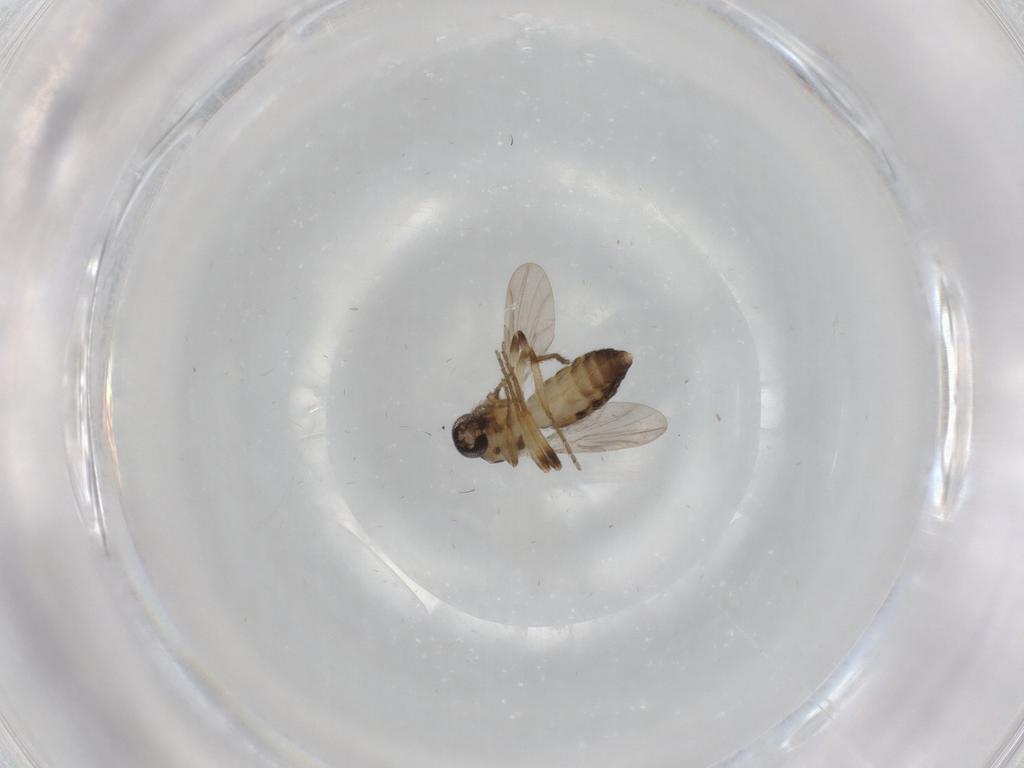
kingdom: Animalia
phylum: Arthropoda
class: Insecta
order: Diptera
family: Ceratopogonidae
